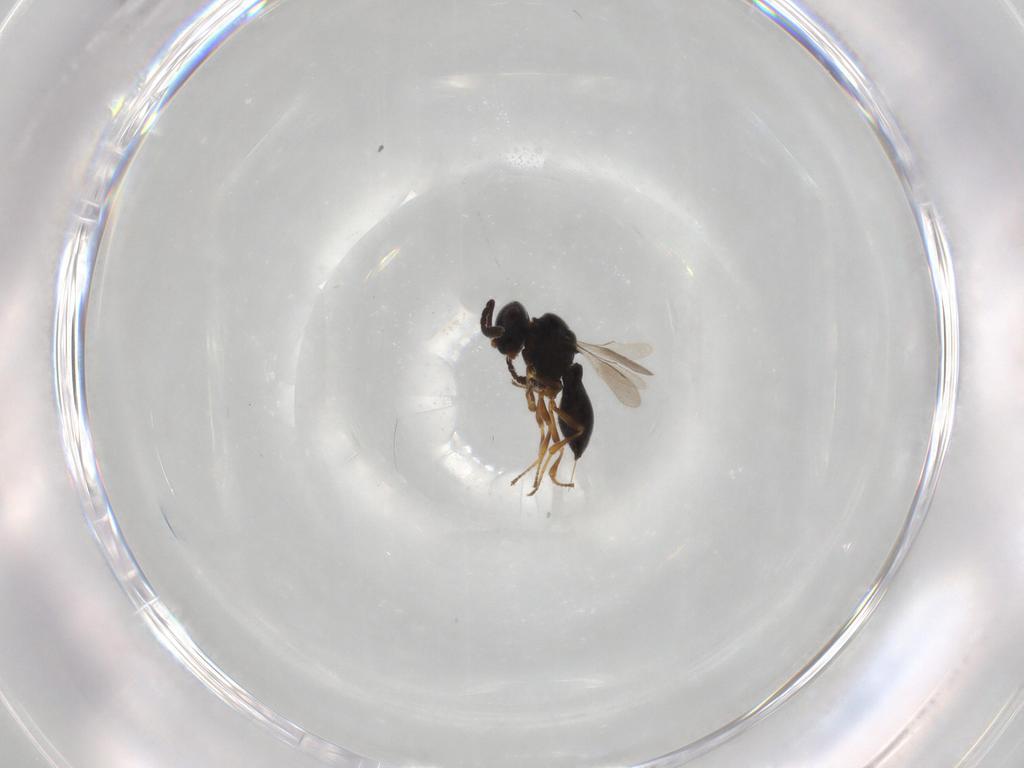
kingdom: Animalia
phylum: Arthropoda
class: Insecta
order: Hymenoptera
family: Scelionidae
